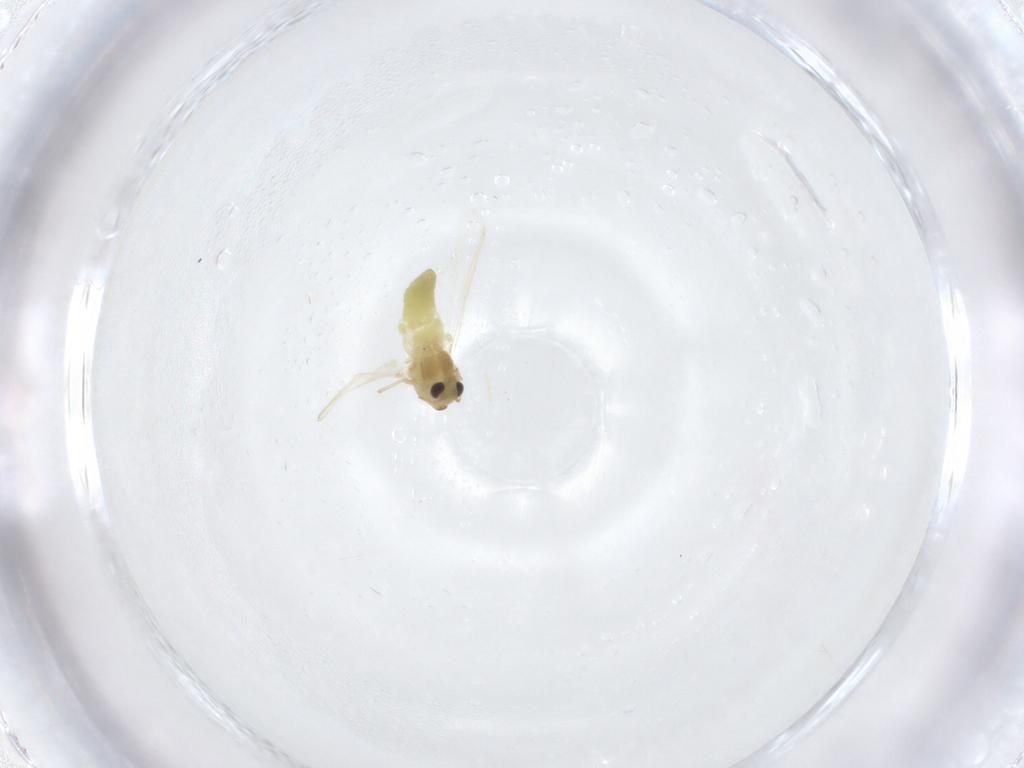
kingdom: Animalia
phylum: Arthropoda
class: Insecta
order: Diptera
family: Chironomidae
